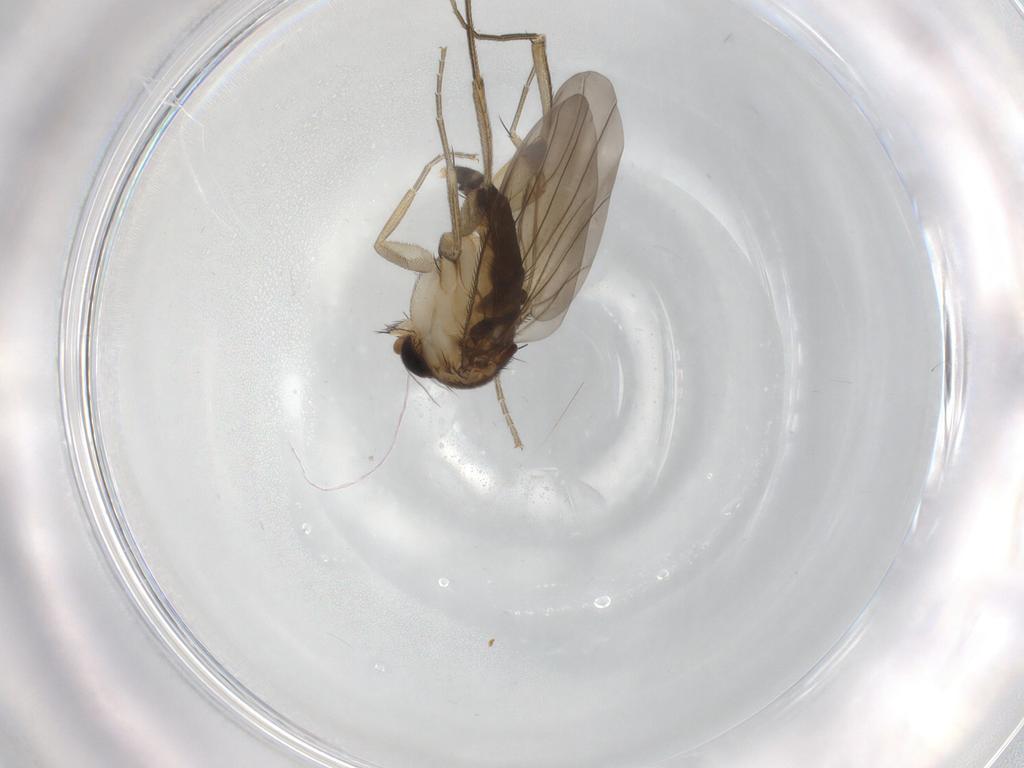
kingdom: Animalia
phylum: Arthropoda
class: Insecta
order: Diptera
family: Phoridae
